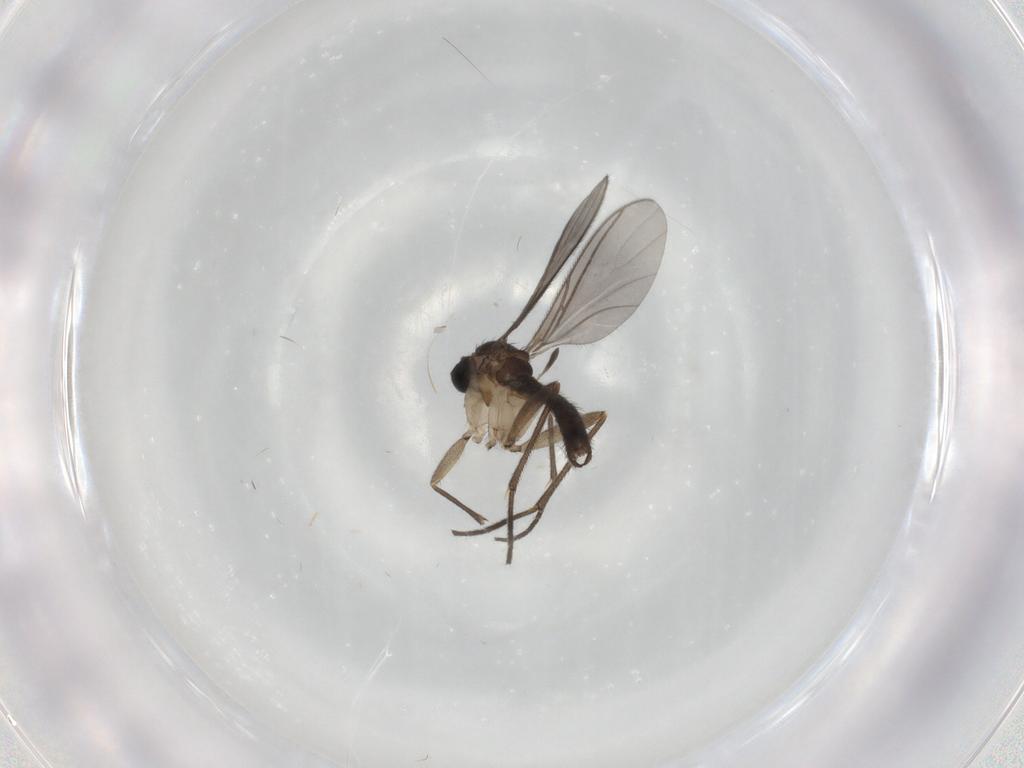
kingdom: Animalia
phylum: Arthropoda
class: Insecta
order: Diptera
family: Sciaridae
